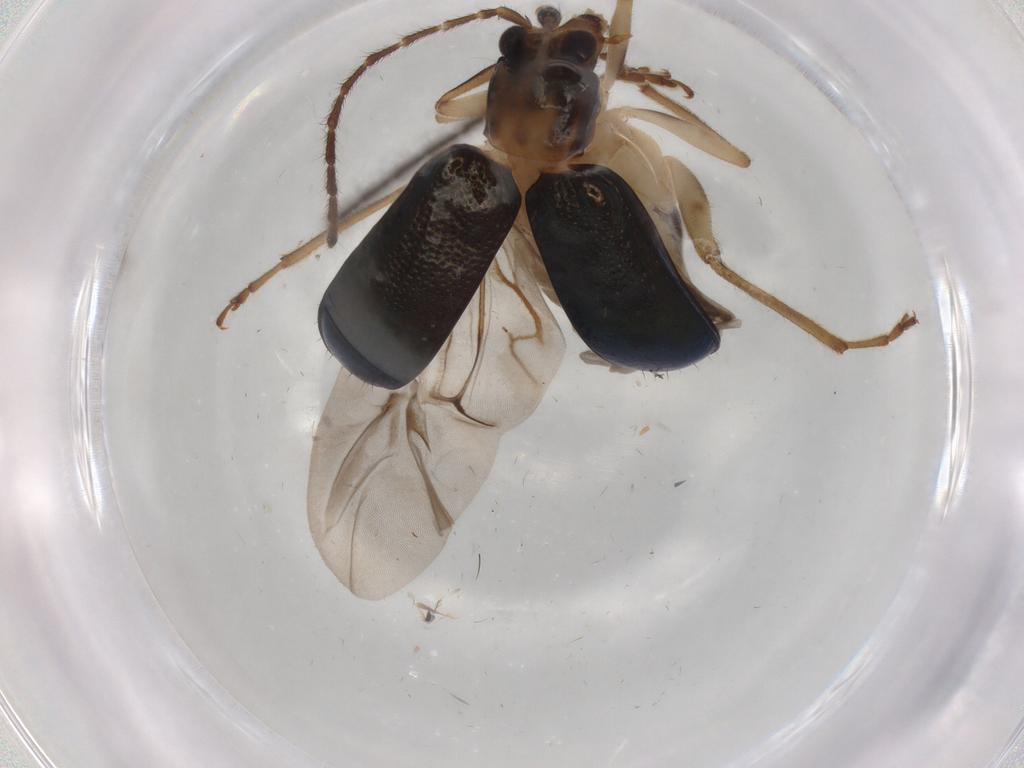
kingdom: Animalia
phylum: Arthropoda
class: Insecta
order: Coleoptera
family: Chrysomelidae
